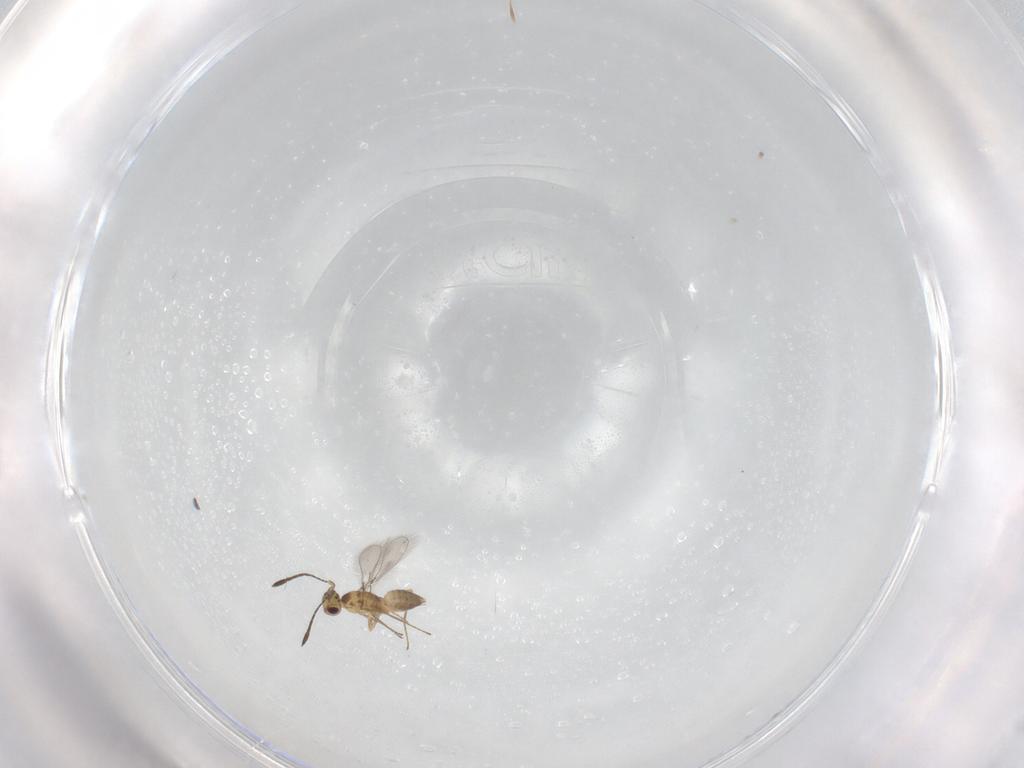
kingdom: Animalia
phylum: Arthropoda
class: Insecta
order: Hymenoptera
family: Mymaridae
